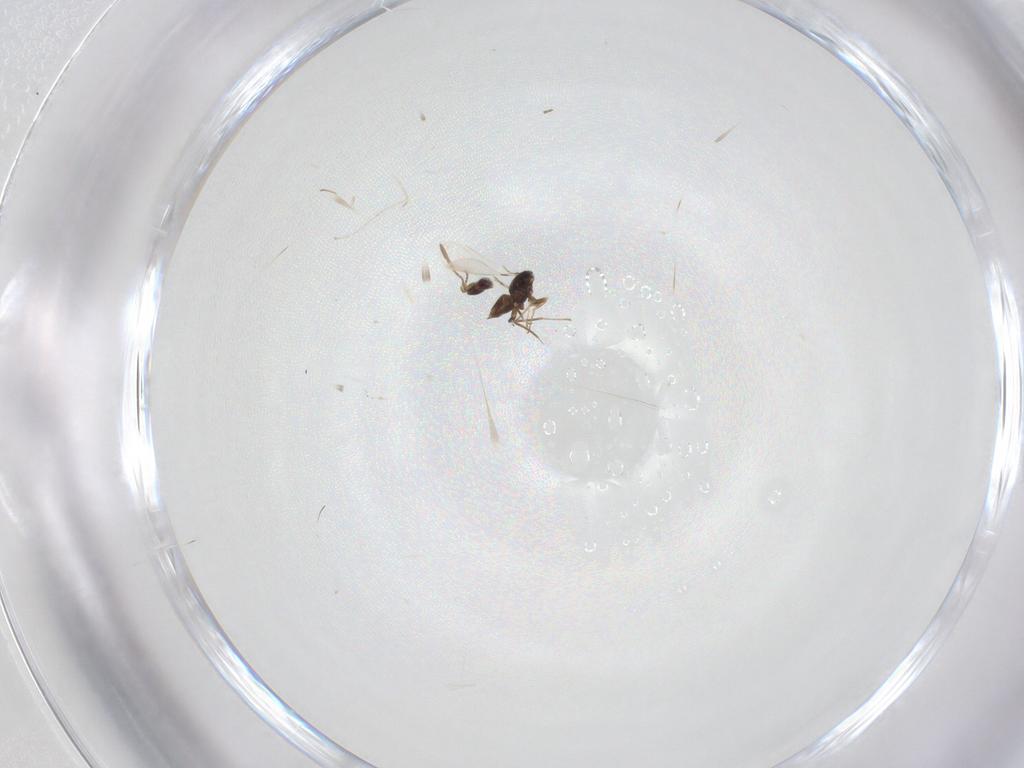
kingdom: Animalia
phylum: Arthropoda
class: Insecta
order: Hymenoptera
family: Mymaridae
